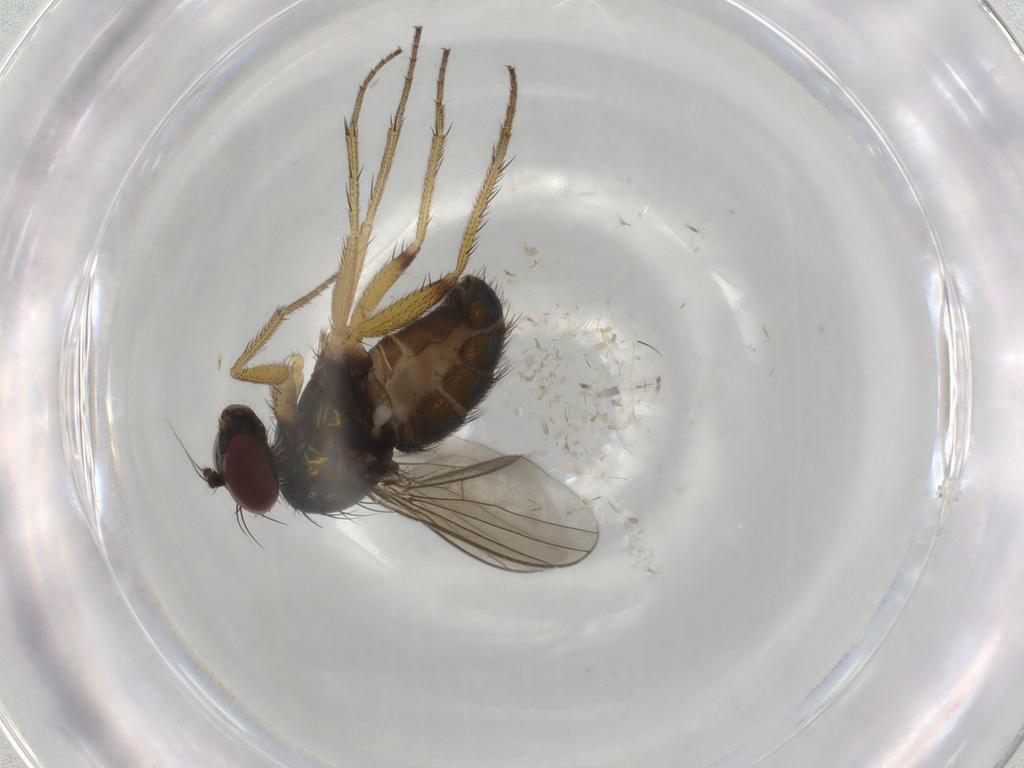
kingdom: Animalia
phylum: Arthropoda
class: Insecta
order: Diptera
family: Dolichopodidae
